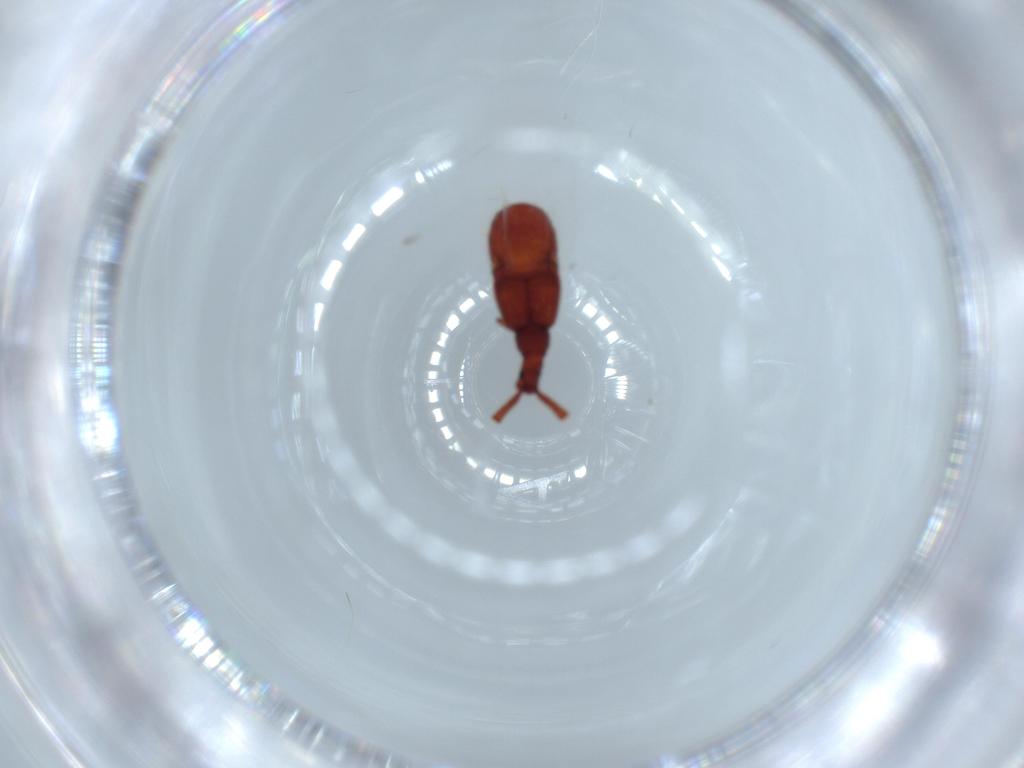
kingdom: Animalia
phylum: Arthropoda
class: Insecta
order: Coleoptera
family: Staphylinidae
